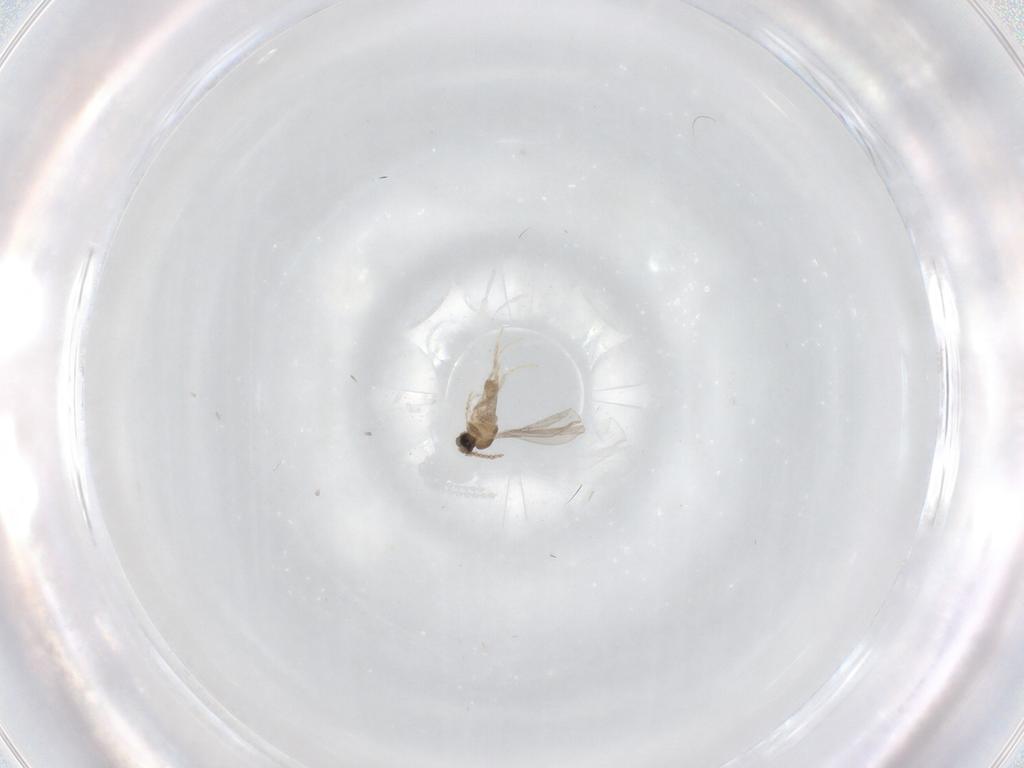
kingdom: Animalia
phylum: Arthropoda
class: Insecta
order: Diptera
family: Cecidomyiidae
